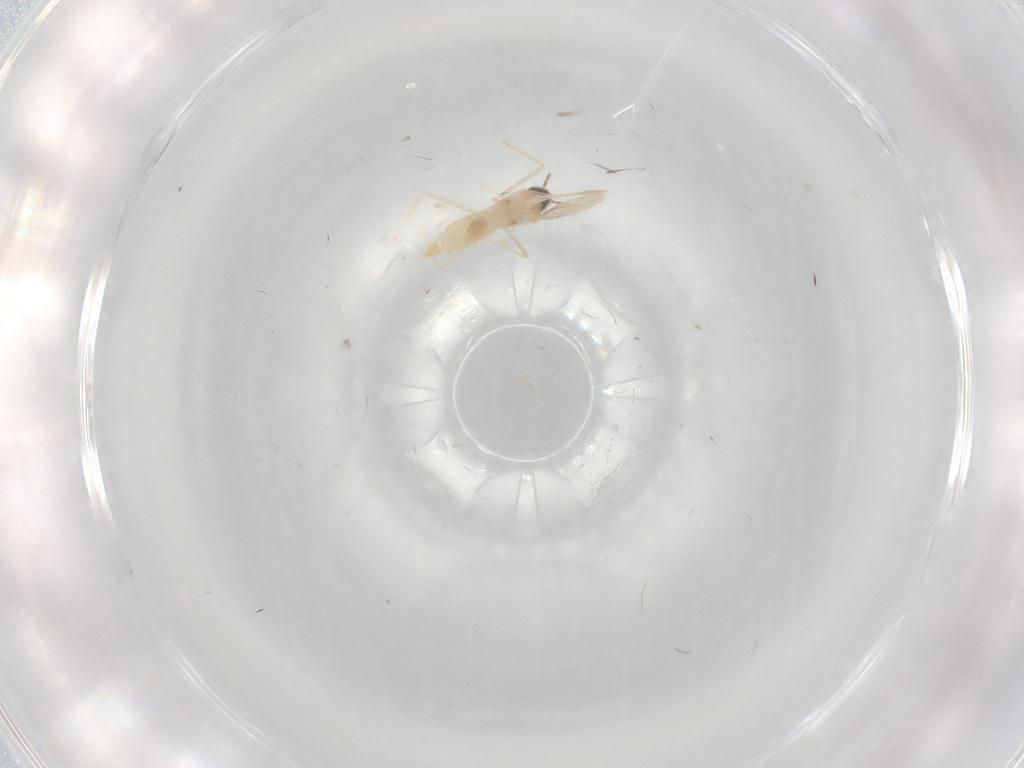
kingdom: Animalia
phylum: Arthropoda
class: Insecta
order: Diptera
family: Cecidomyiidae
